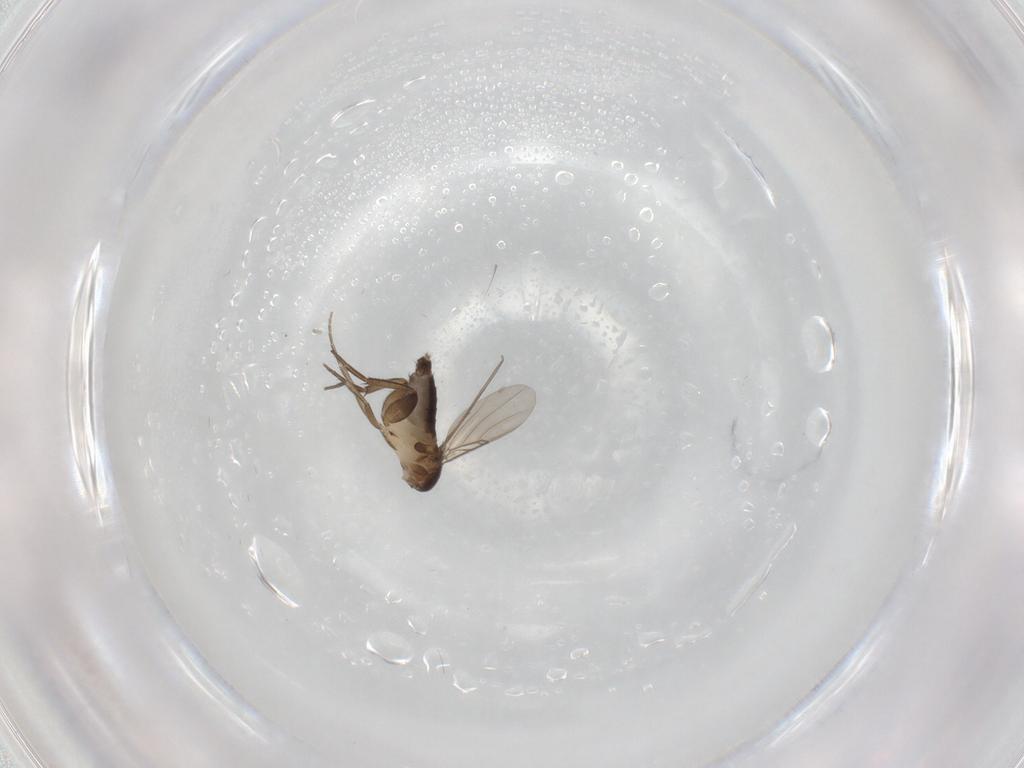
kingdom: Animalia
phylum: Arthropoda
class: Insecta
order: Diptera
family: Phoridae
